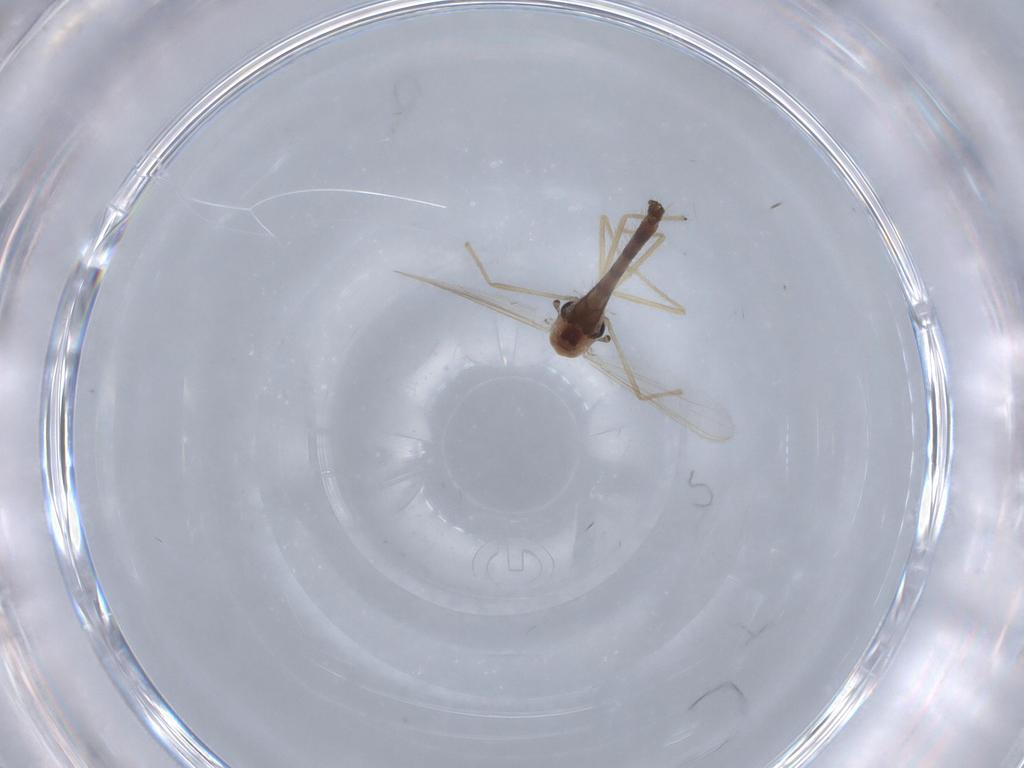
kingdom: Animalia
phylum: Arthropoda
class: Insecta
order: Diptera
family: Chironomidae
